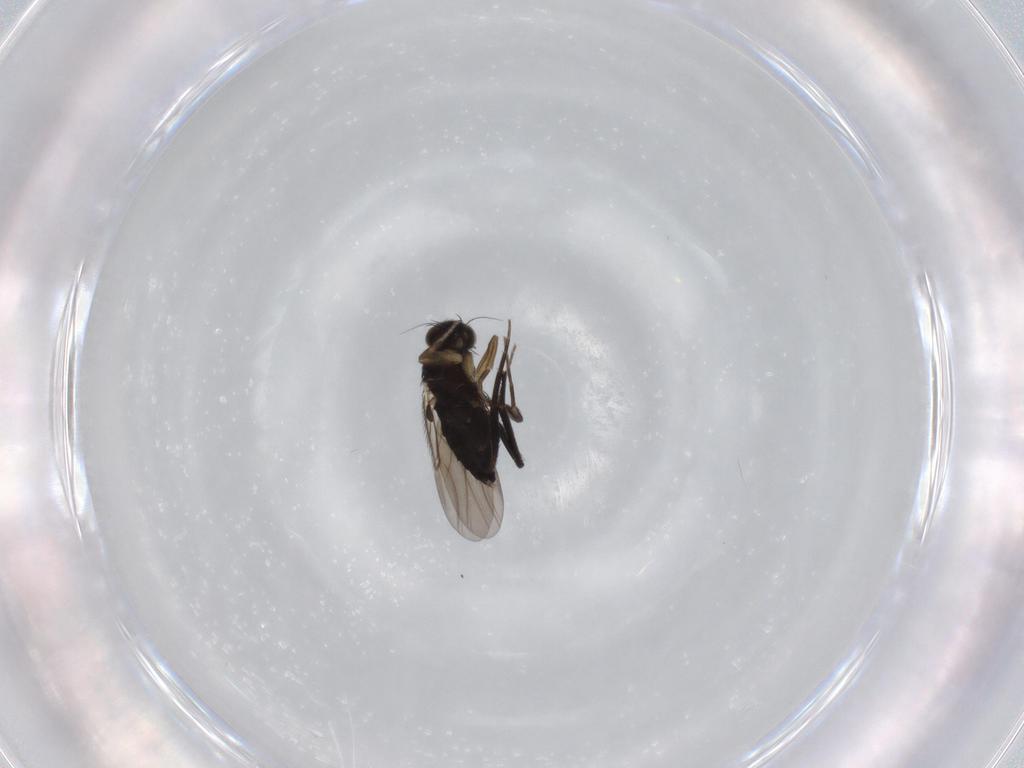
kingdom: Animalia
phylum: Arthropoda
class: Insecta
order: Diptera
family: Phoridae
